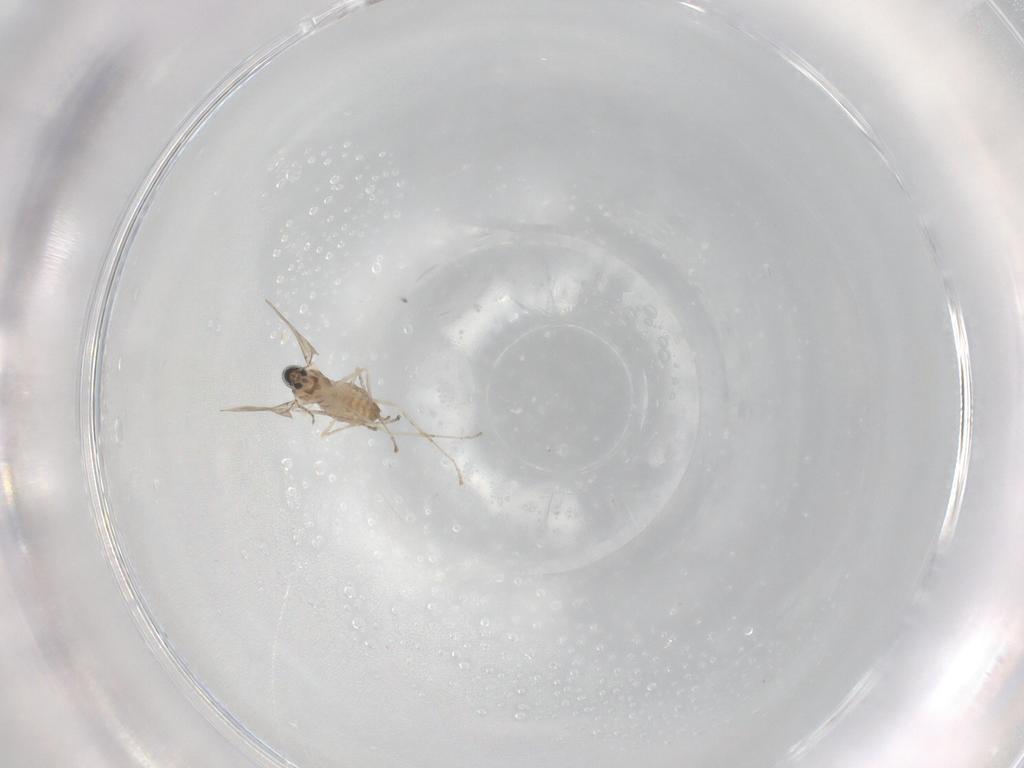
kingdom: Animalia
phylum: Arthropoda
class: Insecta
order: Diptera
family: Cecidomyiidae
